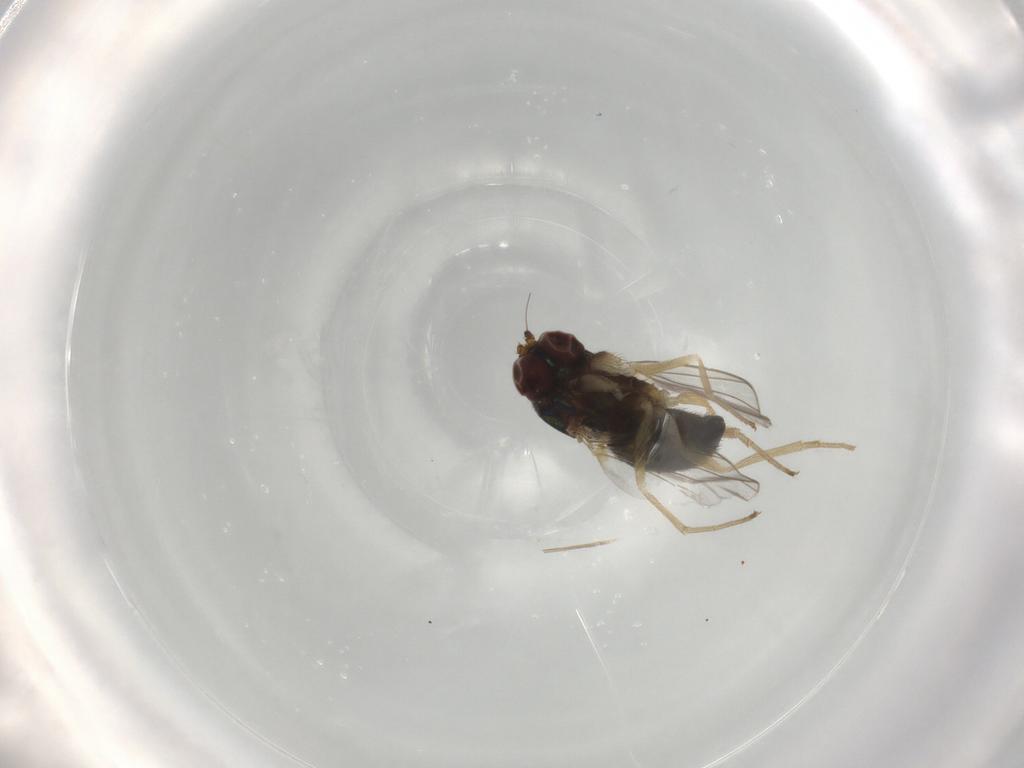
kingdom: Animalia
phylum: Arthropoda
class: Insecta
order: Diptera
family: Dolichopodidae
